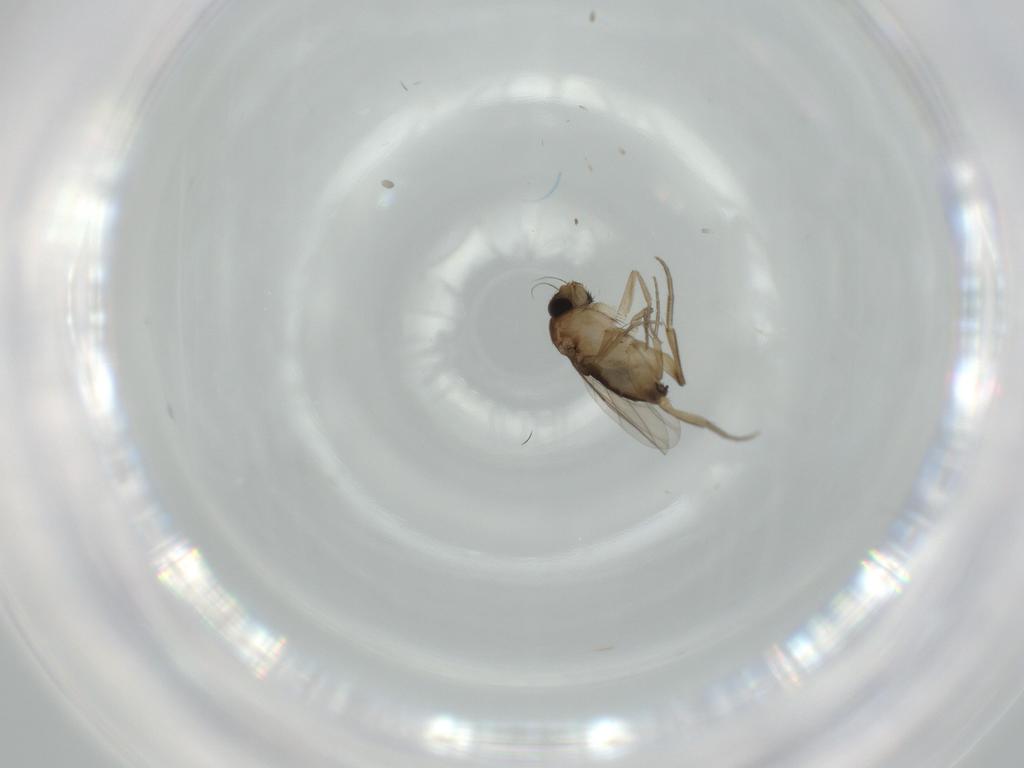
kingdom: Animalia
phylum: Arthropoda
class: Insecta
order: Diptera
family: Phoridae
